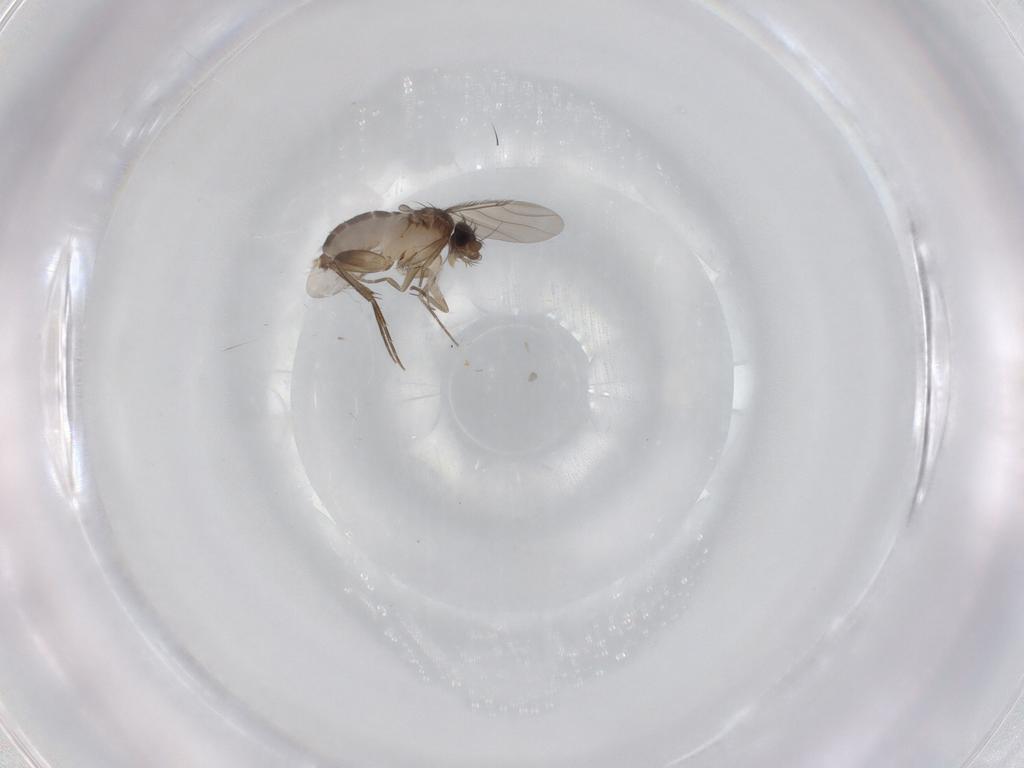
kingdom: Animalia
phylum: Arthropoda
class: Insecta
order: Diptera
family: Phoridae
